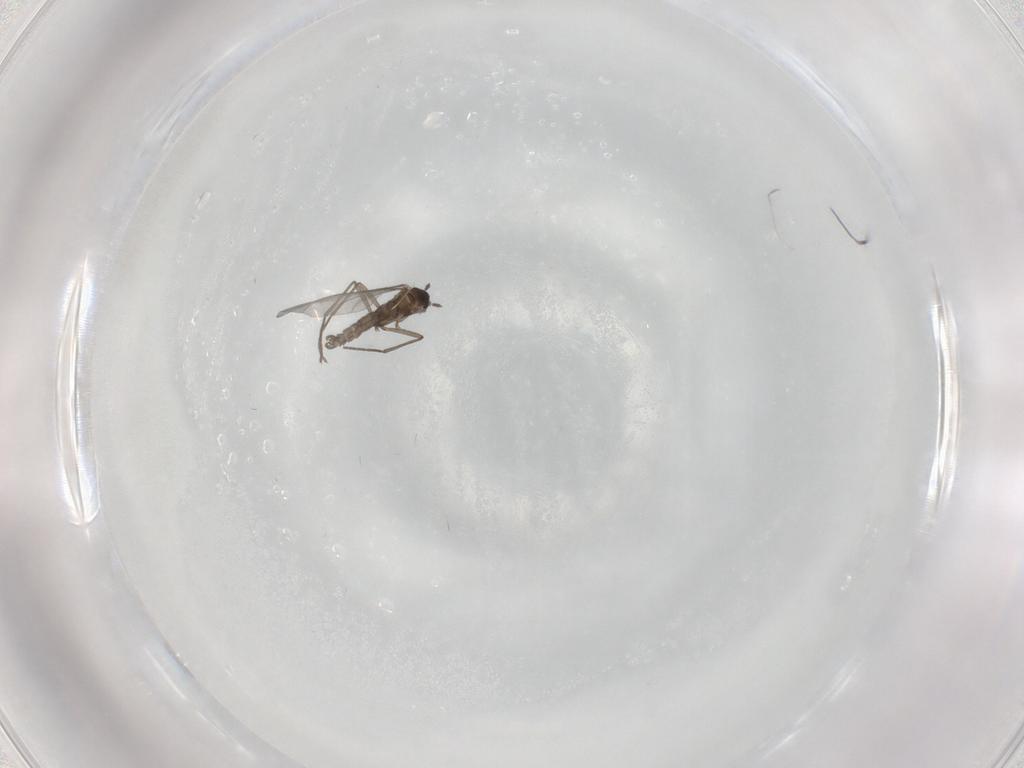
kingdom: Animalia
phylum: Arthropoda
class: Insecta
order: Diptera
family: Sciaridae
